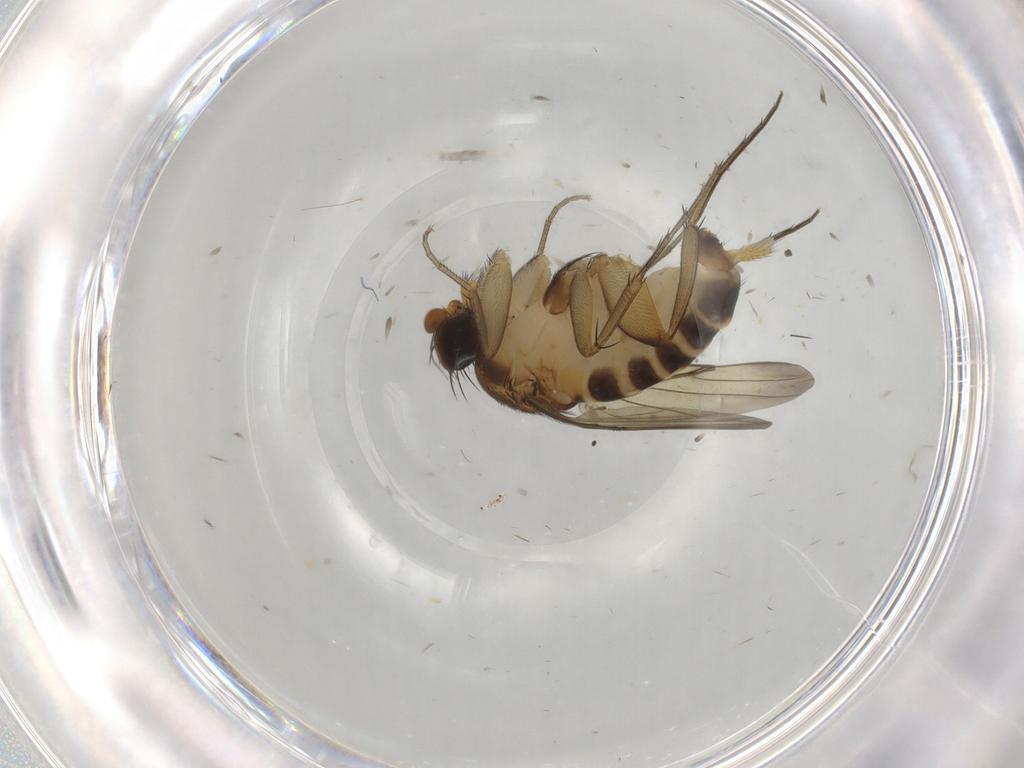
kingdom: Animalia
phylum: Arthropoda
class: Insecta
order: Diptera
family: Phoridae
